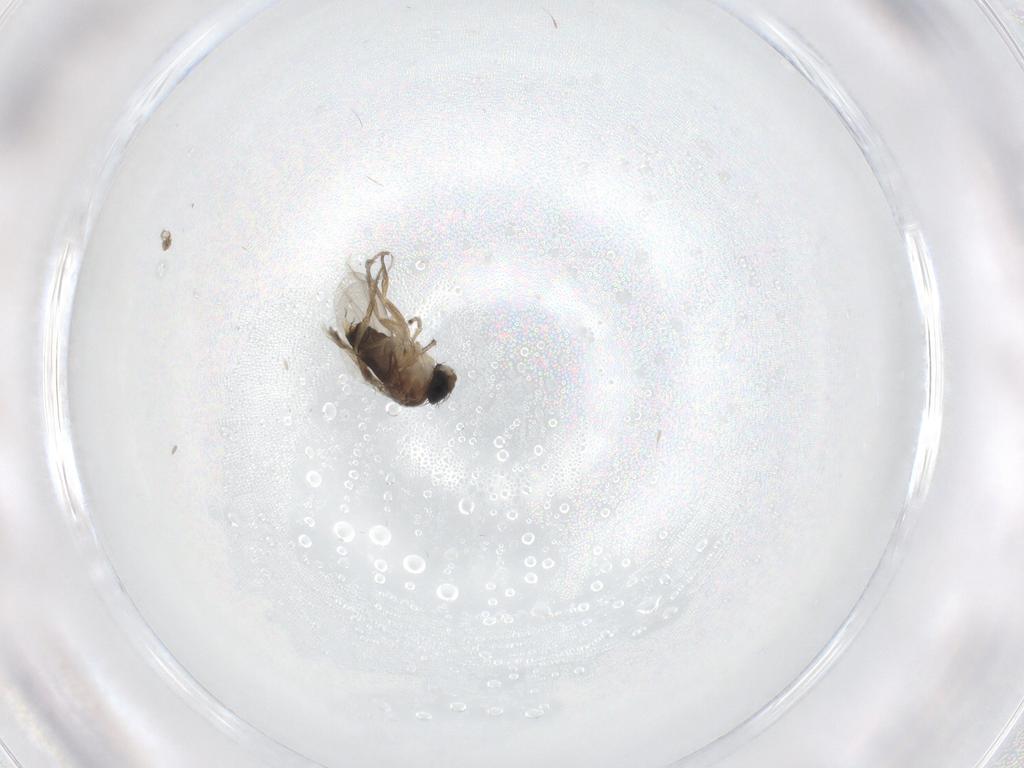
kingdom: Animalia
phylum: Arthropoda
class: Insecta
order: Diptera
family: Phoridae
